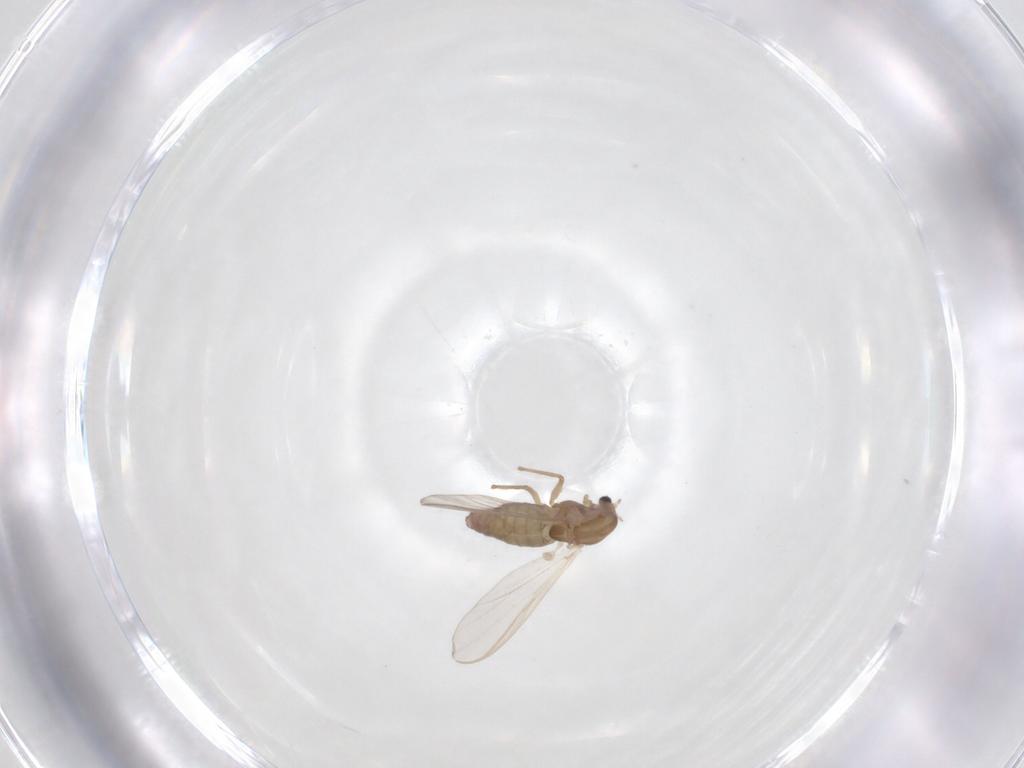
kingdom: Animalia
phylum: Arthropoda
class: Insecta
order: Diptera
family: Chironomidae
